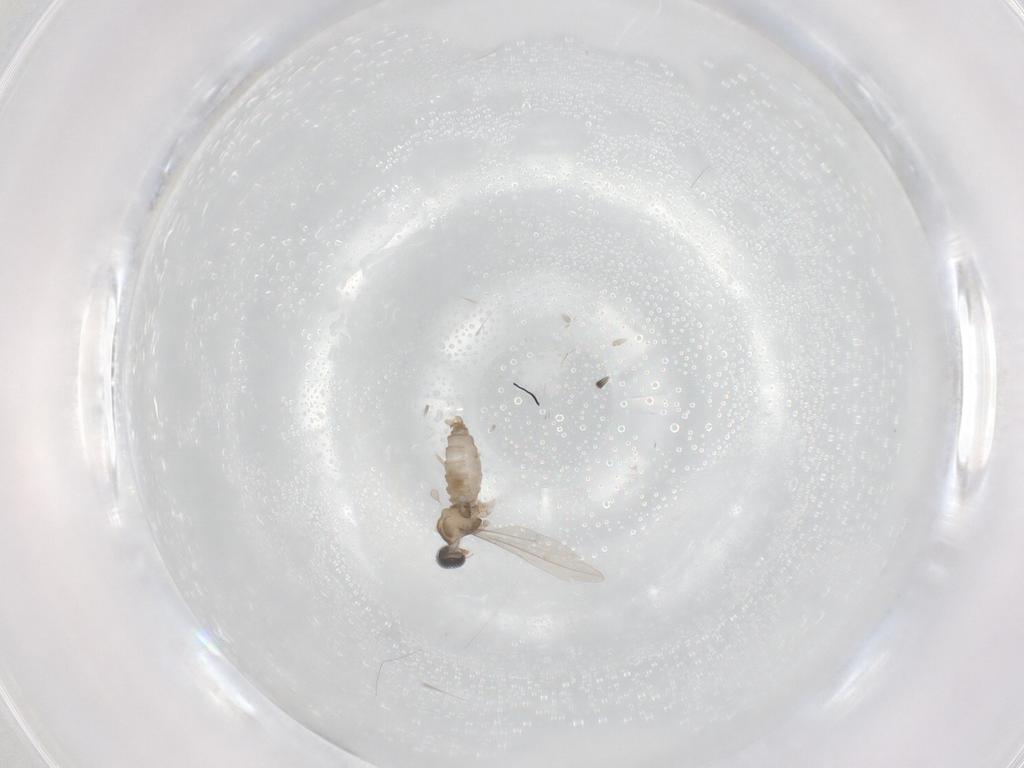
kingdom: Animalia
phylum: Arthropoda
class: Insecta
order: Diptera
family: Cecidomyiidae
